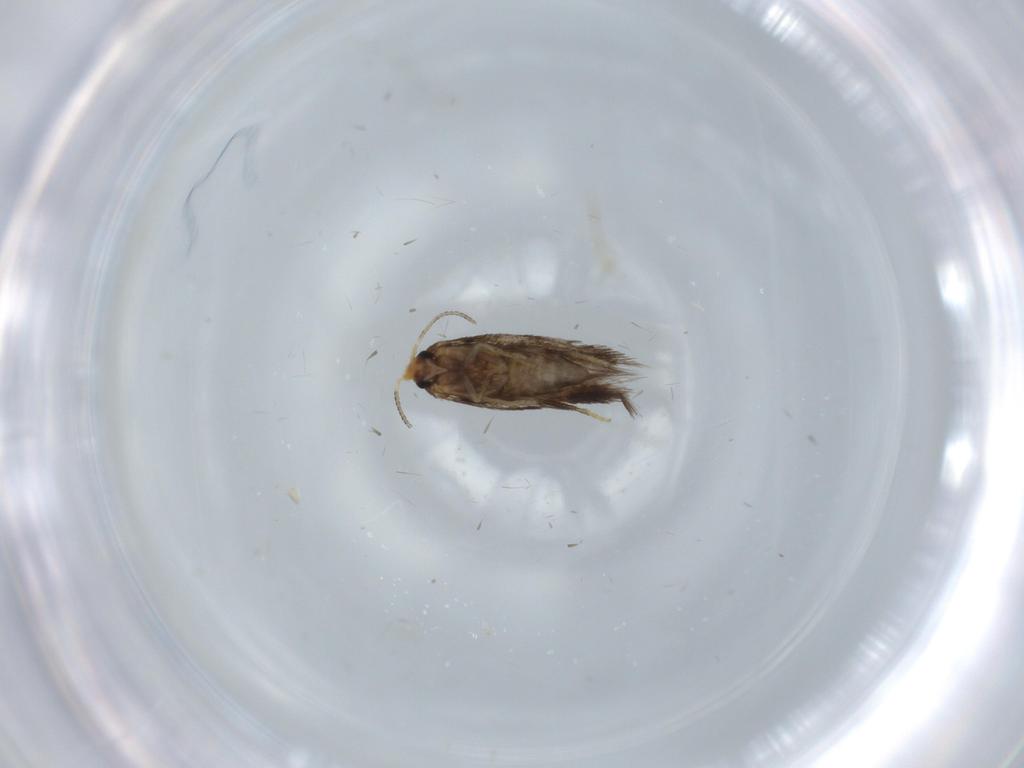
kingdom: Animalia
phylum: Arthropoda
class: Insecta
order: Lepidoptera
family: Nepticulidae
